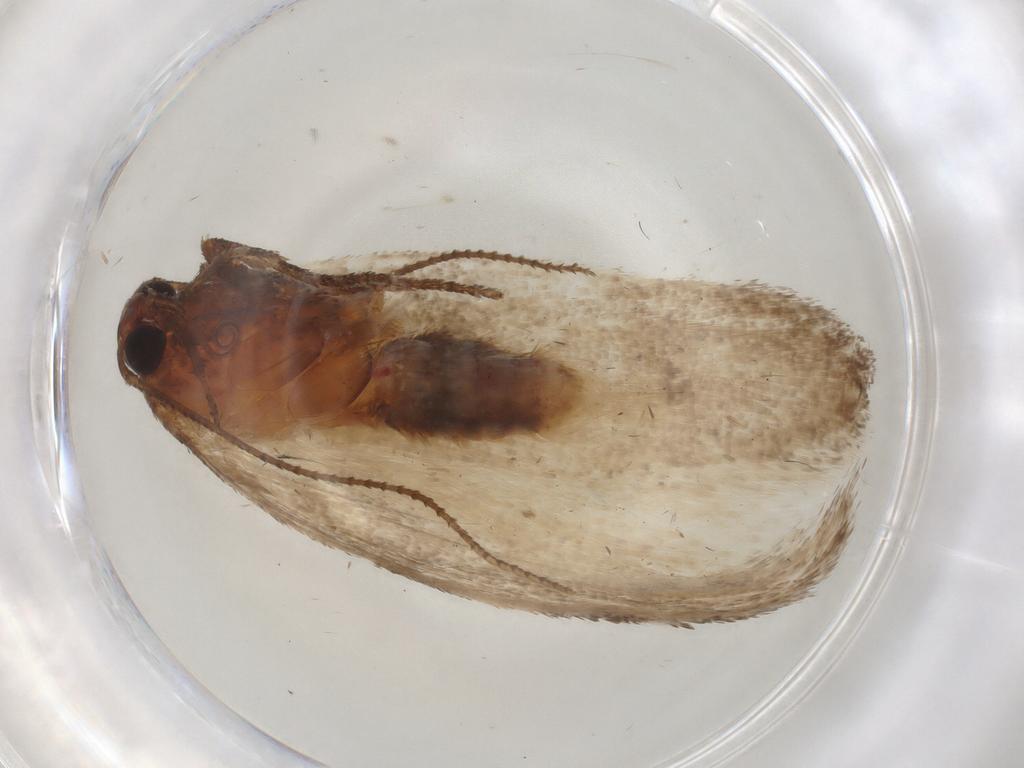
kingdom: Animalia
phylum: Arthropoda
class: Insecta
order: Lepidoptera
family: Cosmopterigidae
